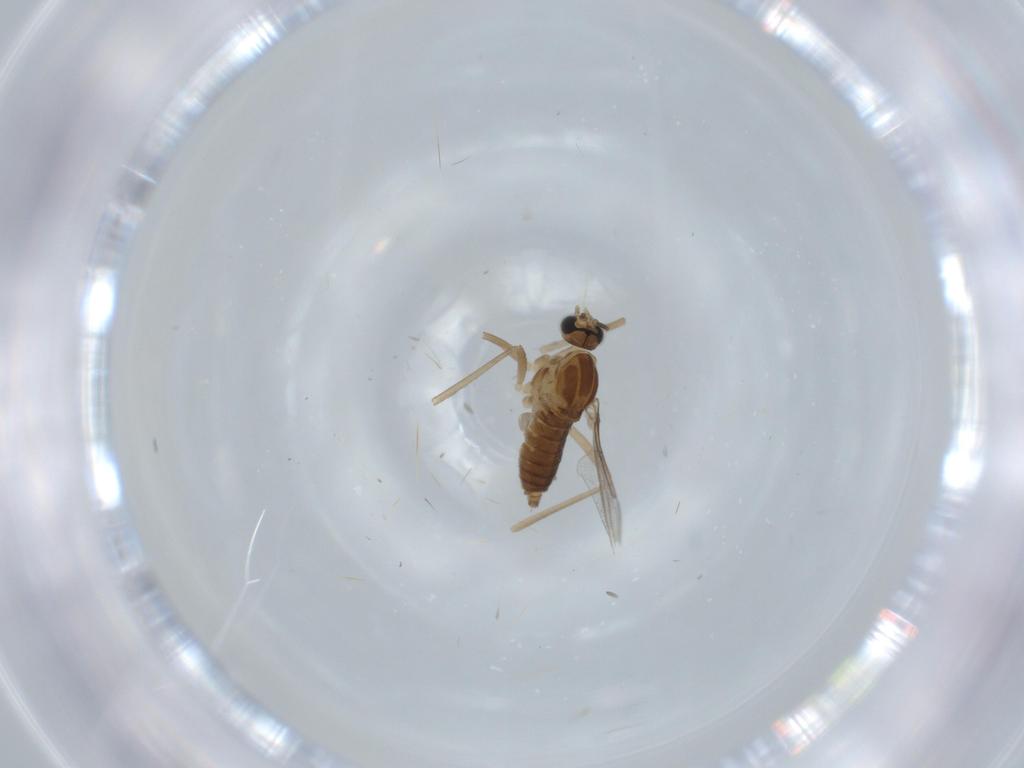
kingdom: Animalia
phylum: Arthropoda
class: Insecta
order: Diptera
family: Cecidomyiidae
